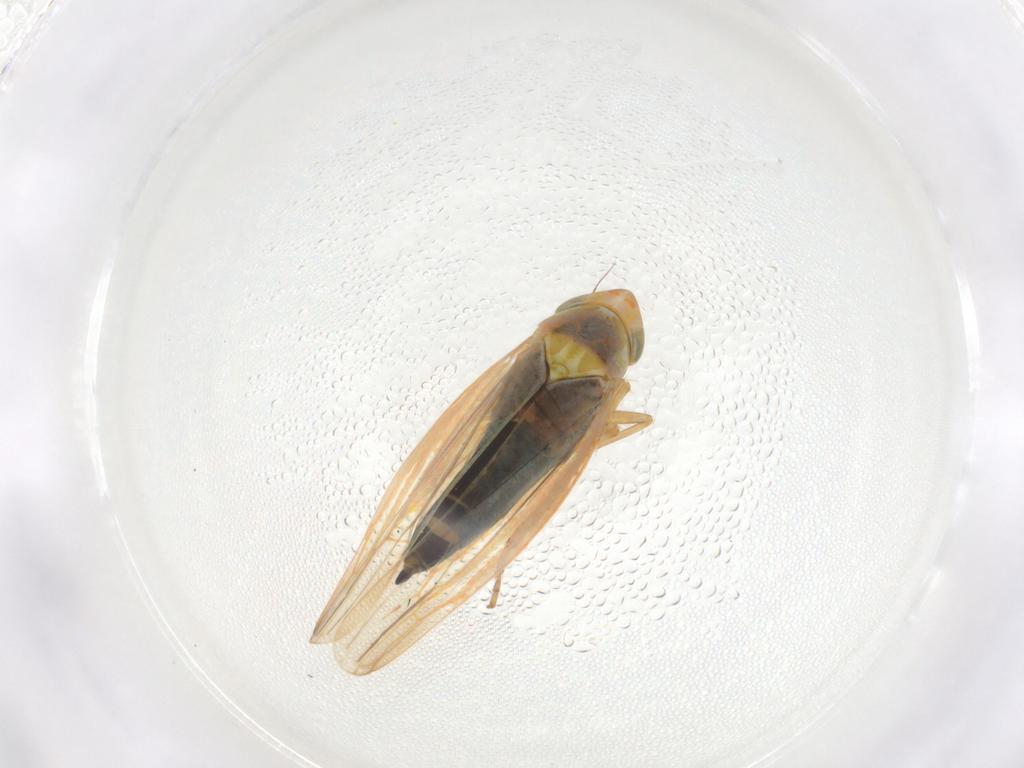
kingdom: Animalia
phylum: Arthropoda
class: Insecta
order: Hemiptera
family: Cicadellidae
